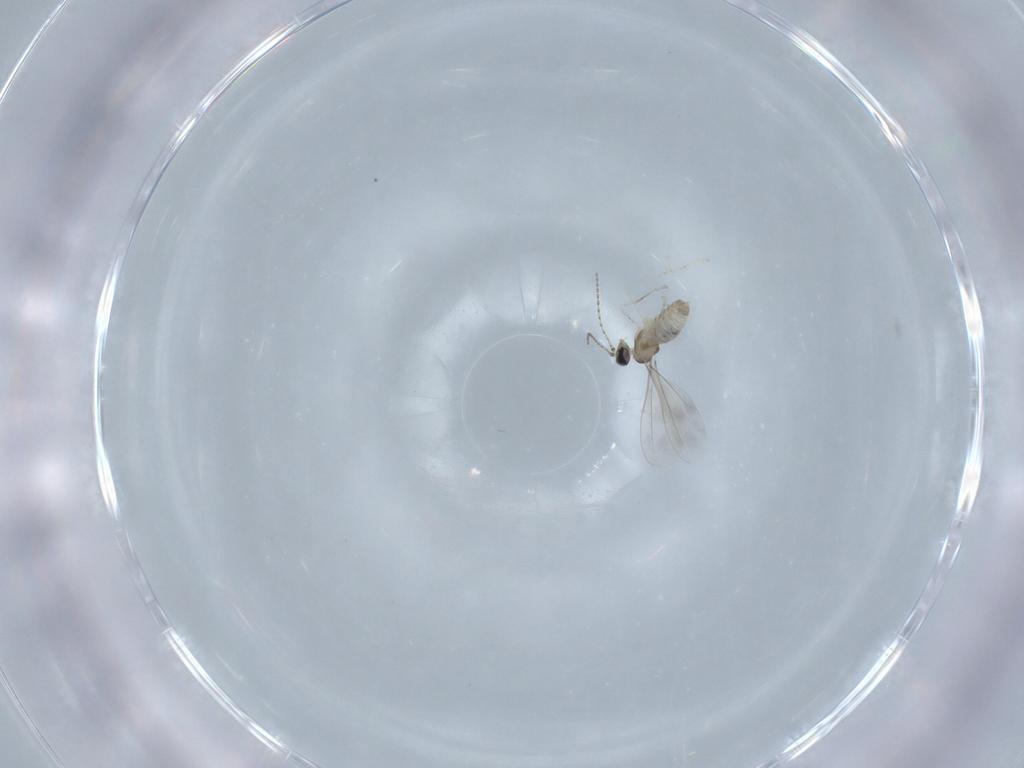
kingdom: Animalia
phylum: Arthropoda
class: Insecta
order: Diptera
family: Cecidomyiidae
